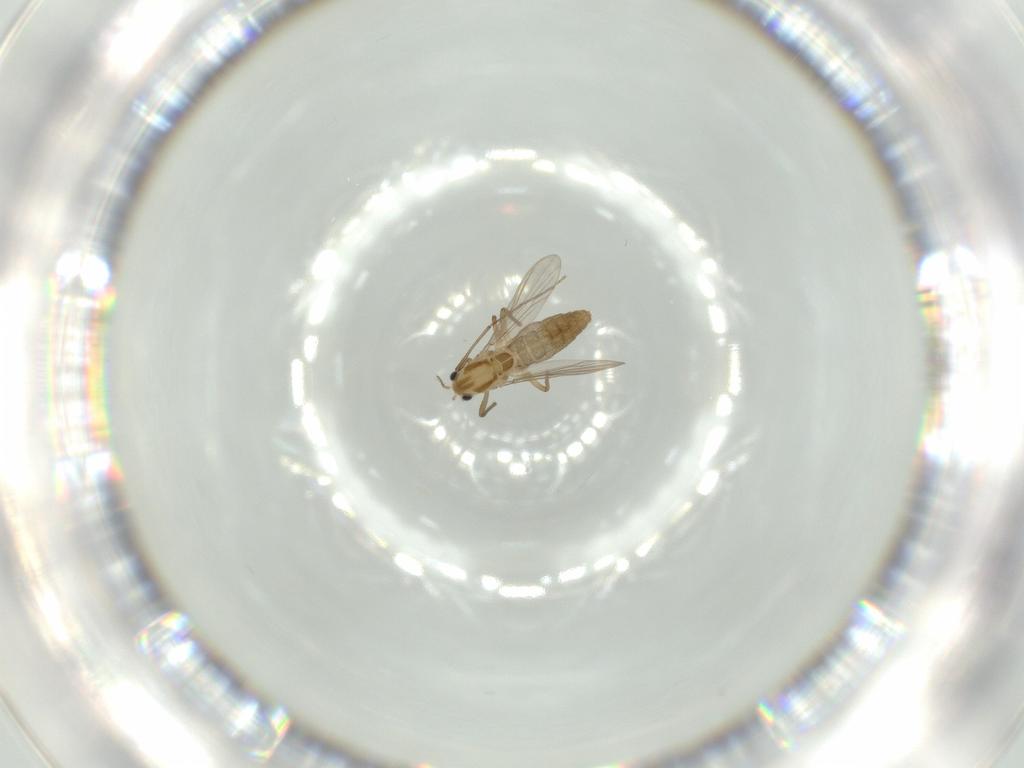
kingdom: Animalia
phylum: Arthropoda
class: Insecta
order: Diptera
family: Chironomidae
